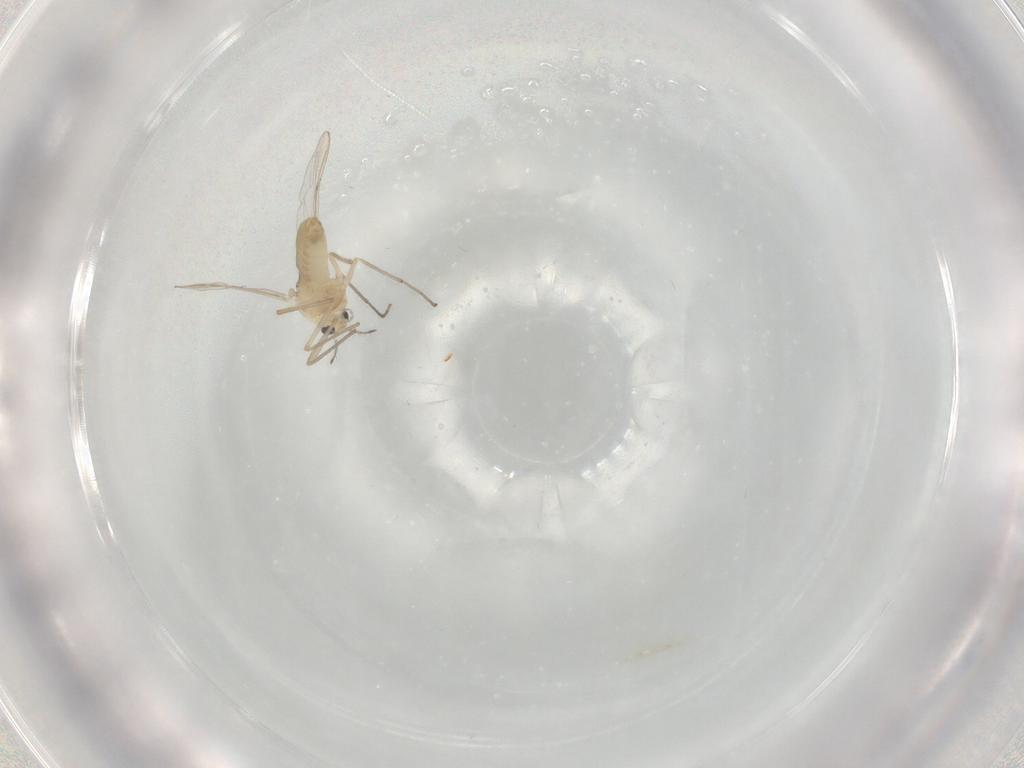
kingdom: Animalia
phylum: Arthropoda
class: Insecta
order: Diptera
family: Chironomidae
